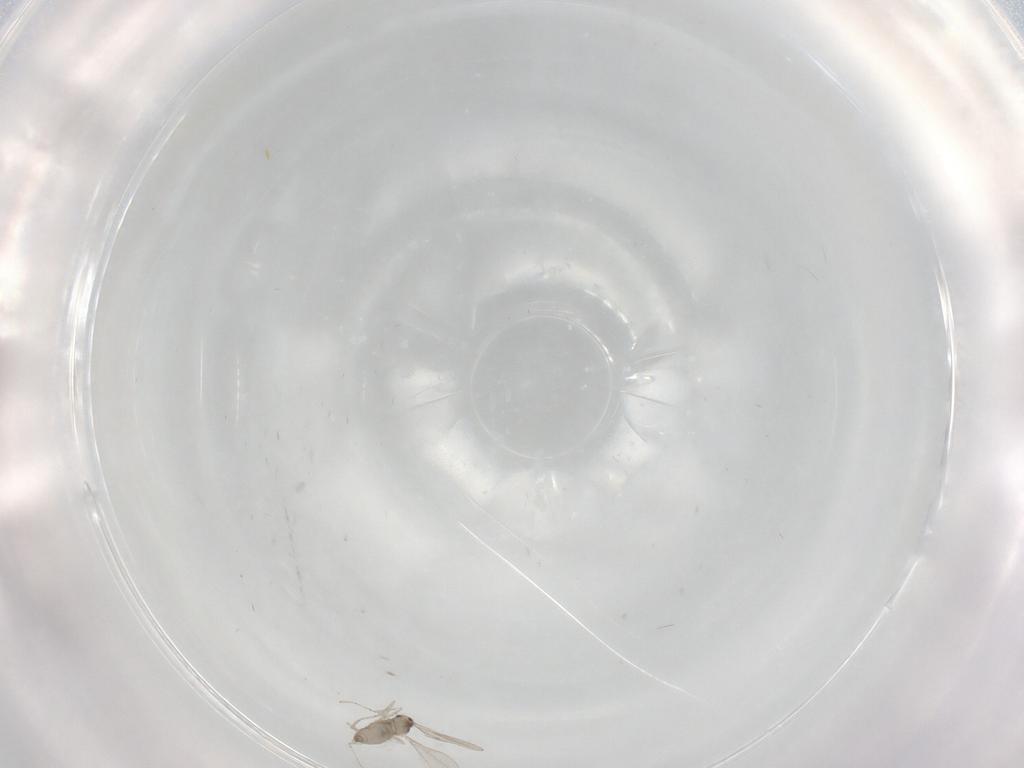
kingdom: Animalia
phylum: Arthropoda
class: Insecta
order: Diptera
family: Cecidomyiidae
